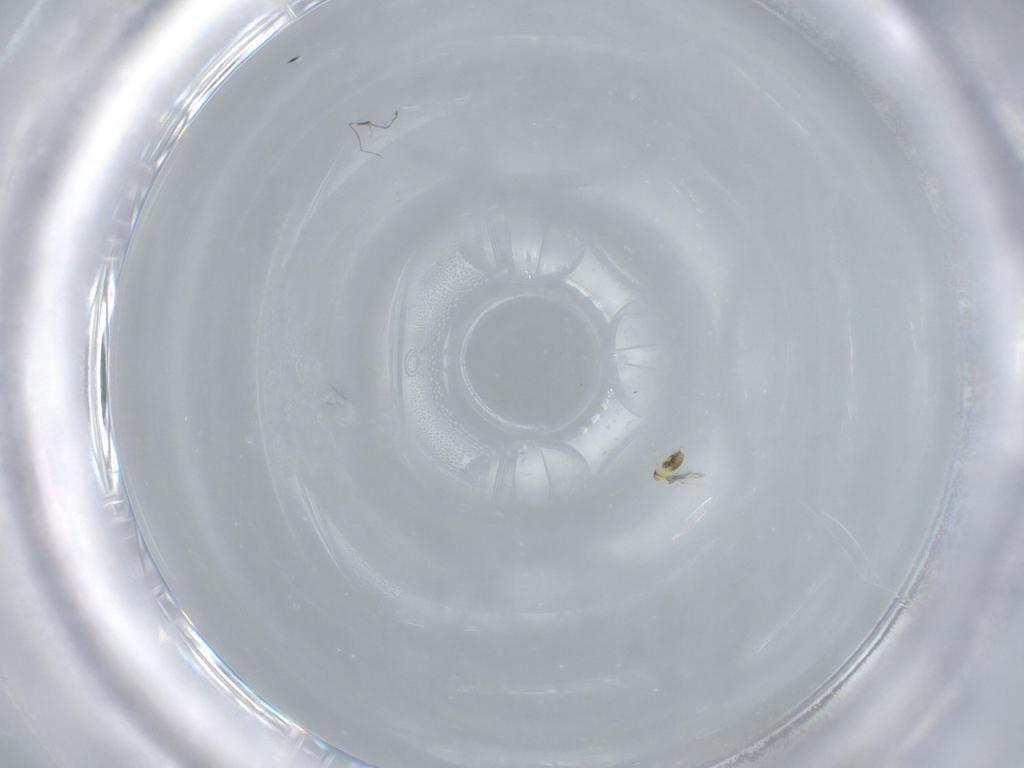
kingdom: Animalia
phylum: Arthropoda
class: Insecta
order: Hymenoptera
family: Trichogrammatidae
